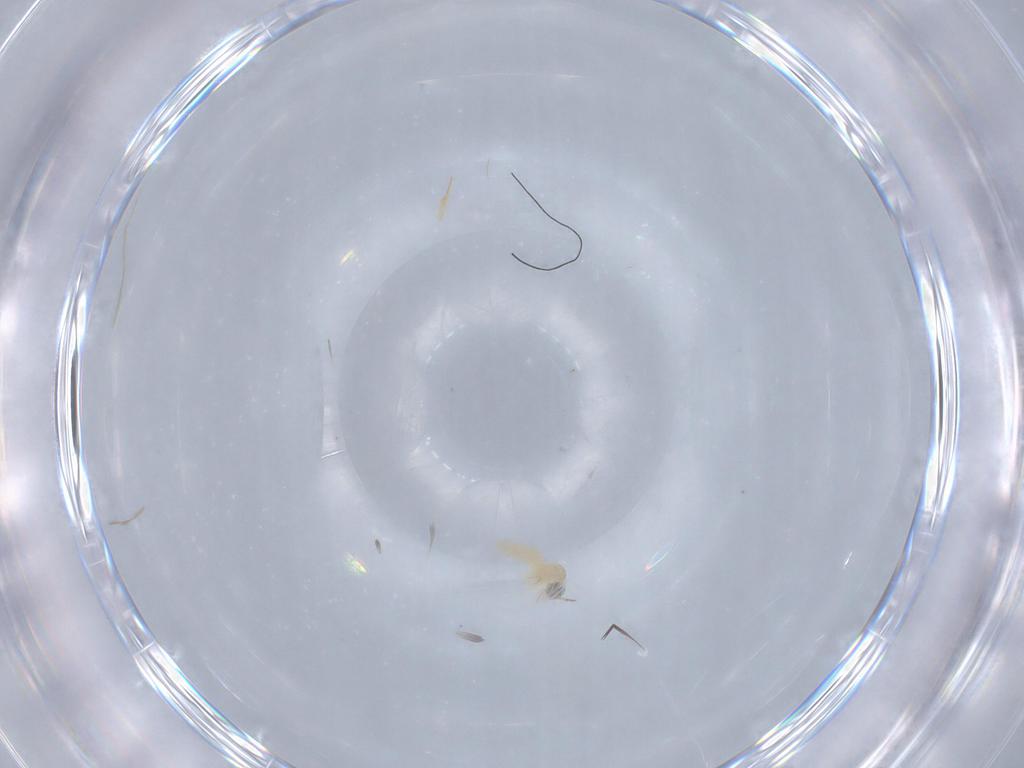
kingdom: Animalia
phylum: Arthropoda
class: Insecta
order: Diptera
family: Cecidomyiidae
